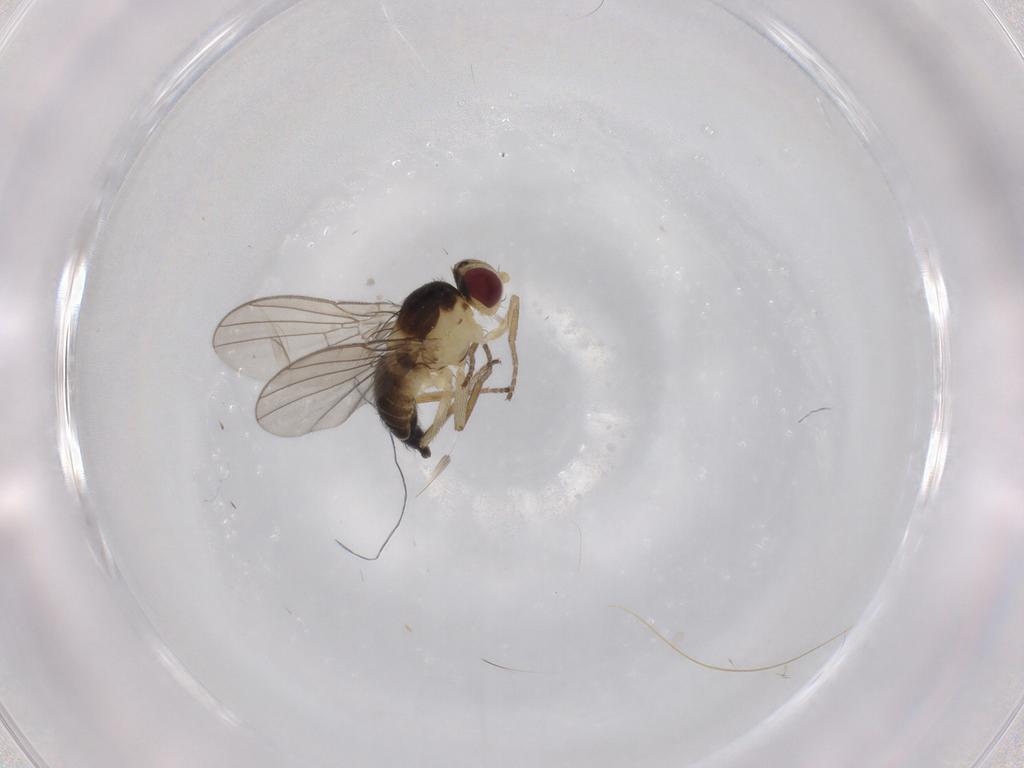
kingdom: Animalia
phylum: Arthropoda
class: Insecta
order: Diptera
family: Agromyzidae
